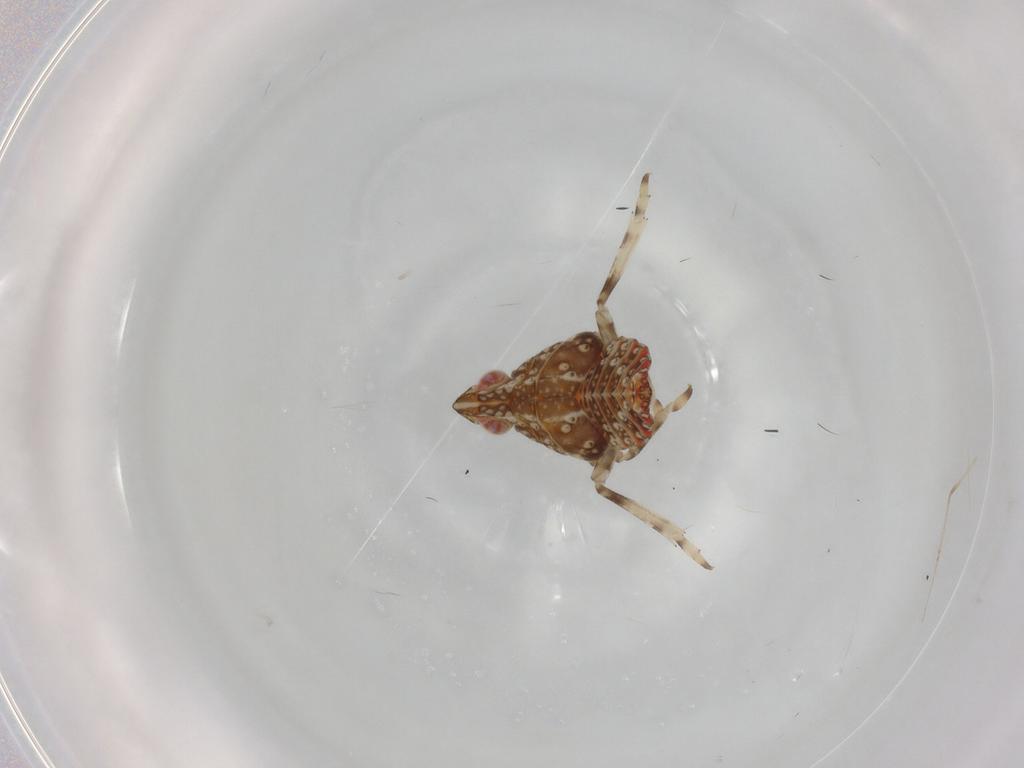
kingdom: Animalia
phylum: Arthropoda
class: Insecta
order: Hemiptera
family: Tropiduchidae
